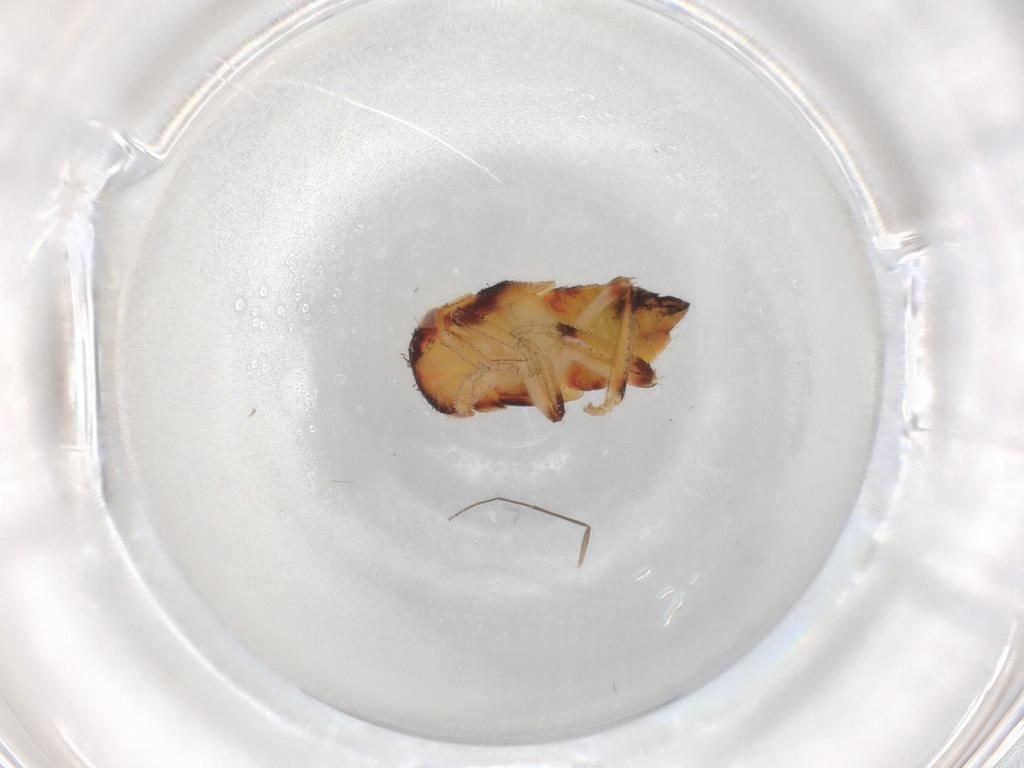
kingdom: Animalia
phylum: Arthropoda
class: Insecta
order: Hemiptera
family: Cicadellidae
